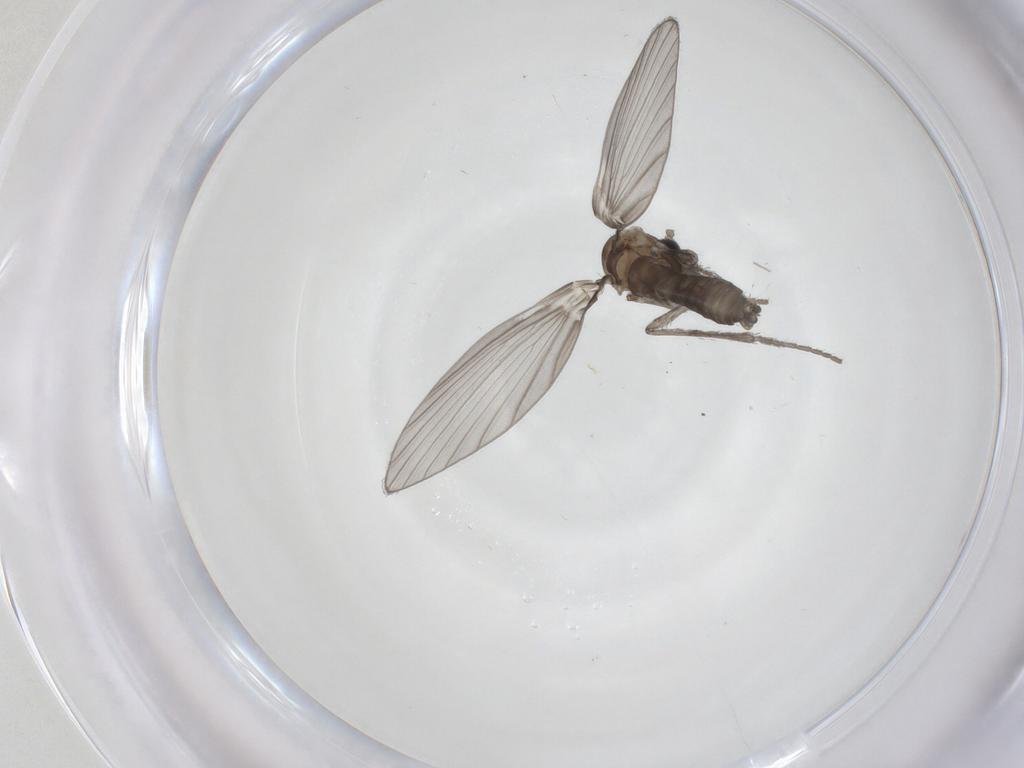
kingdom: Animalia
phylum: Arthropoda
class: Insecta
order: Diptera
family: Psychodidae
